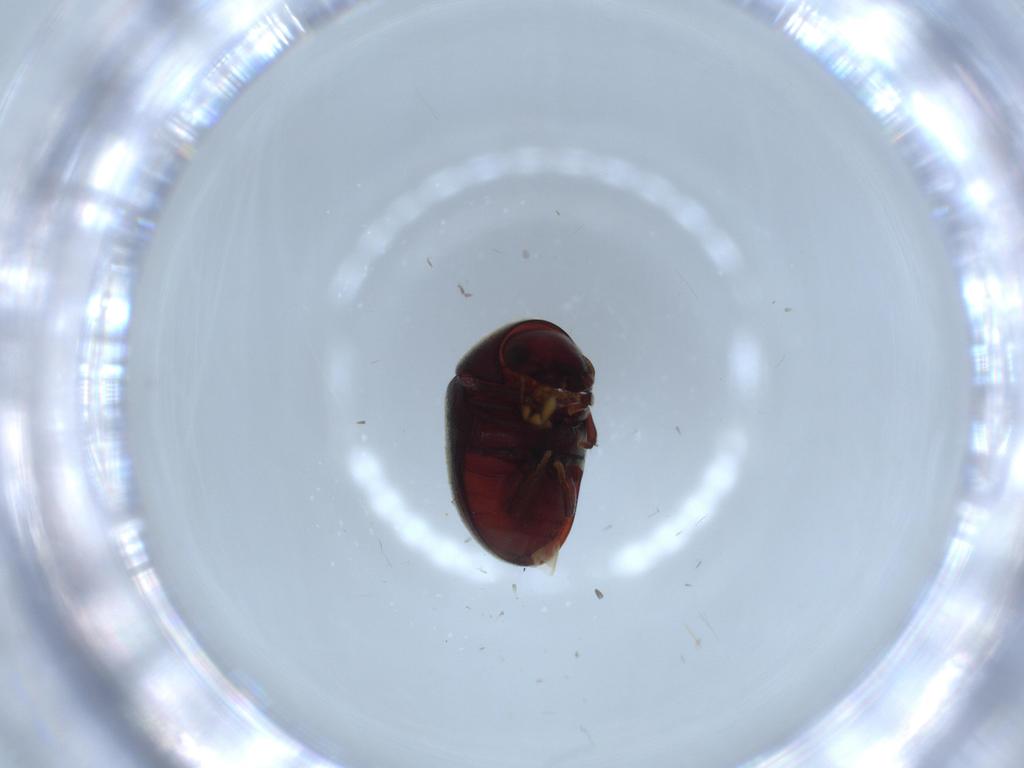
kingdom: Animalia
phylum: Arthropoda
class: Insecta
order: Coleoptera
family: Ptinidae
